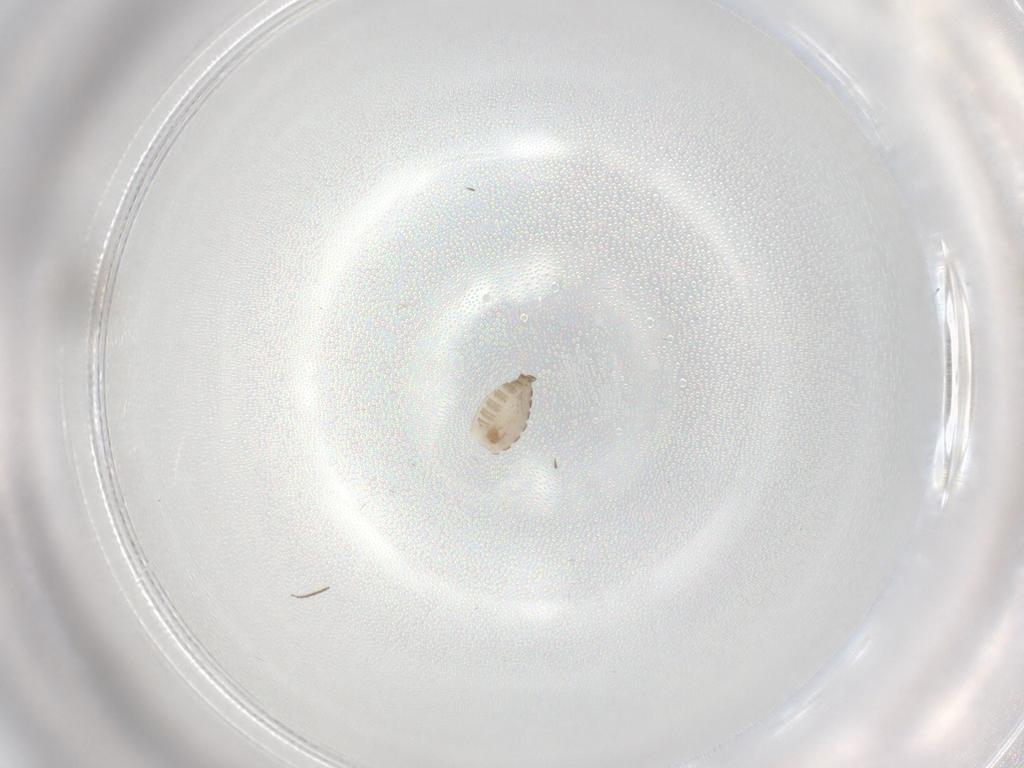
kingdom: Animalia
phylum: Arthropoda
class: Insecta
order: Diptera
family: Chironomidae
